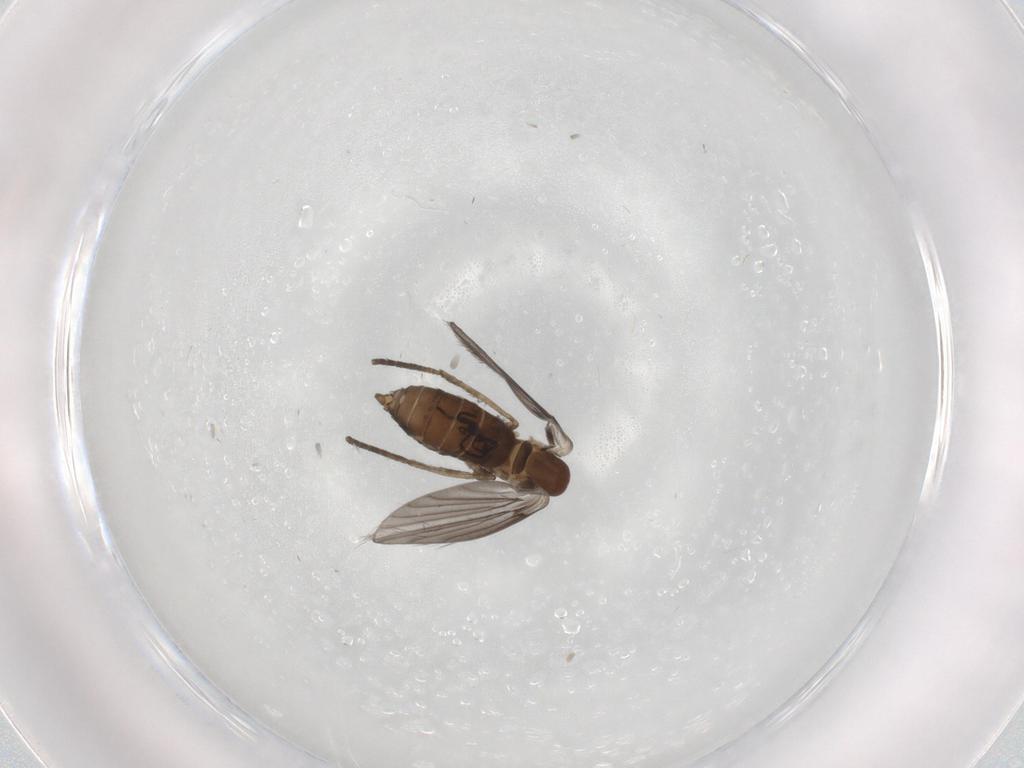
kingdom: Animalia
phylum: Arthropoda
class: Insecta
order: Diptera
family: Psychodidae
